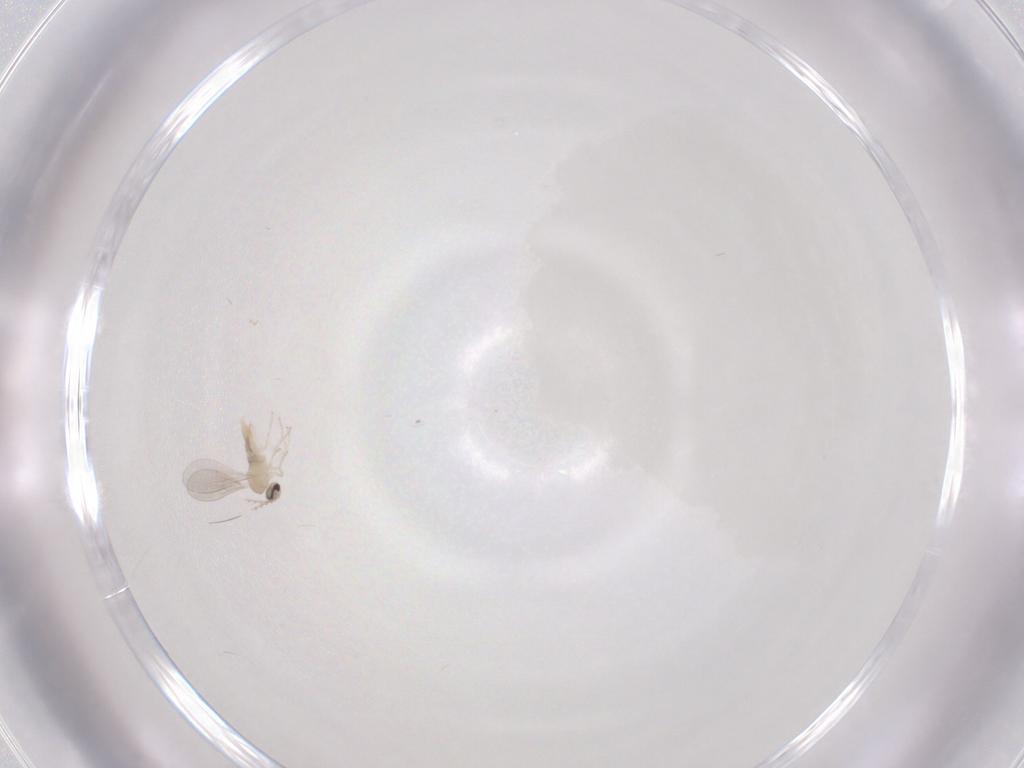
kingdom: Animalia
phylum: Arthropoda
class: Insecta
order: Diptera
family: Cecidomyiidae
